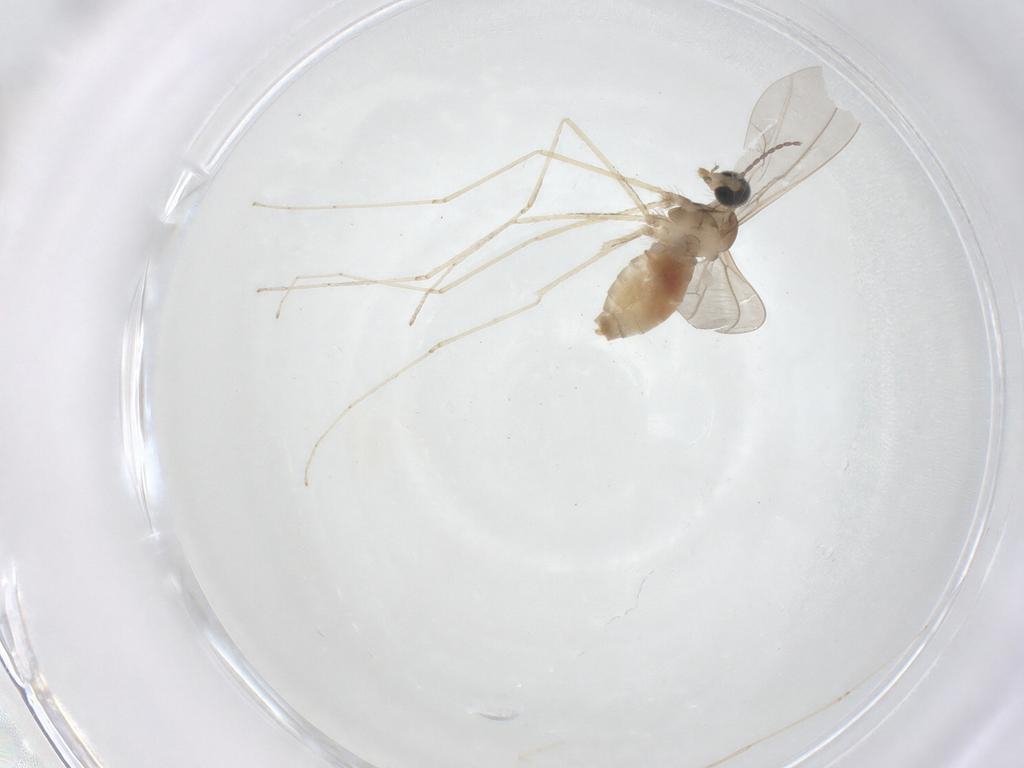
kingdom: Animalia
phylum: Arthropoda
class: Insecta
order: Diptera
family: Cecidomyiidae
